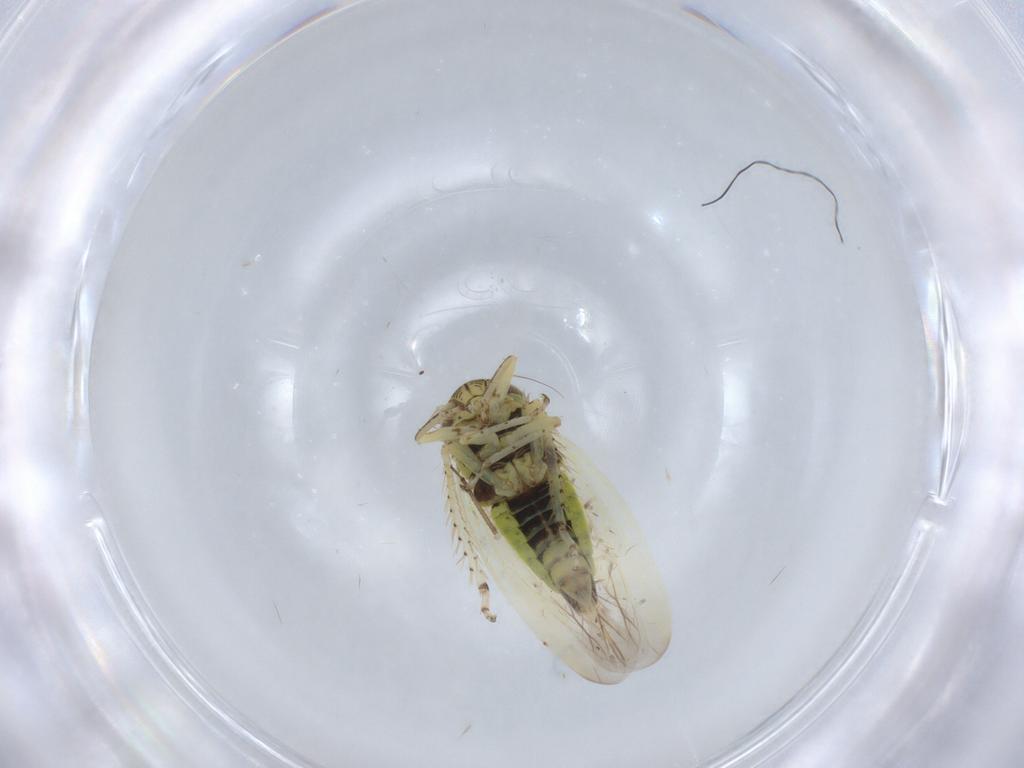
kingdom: Animalia
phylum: Arthropoda
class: Insecta
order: Hemiptera
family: Cicadellidae
